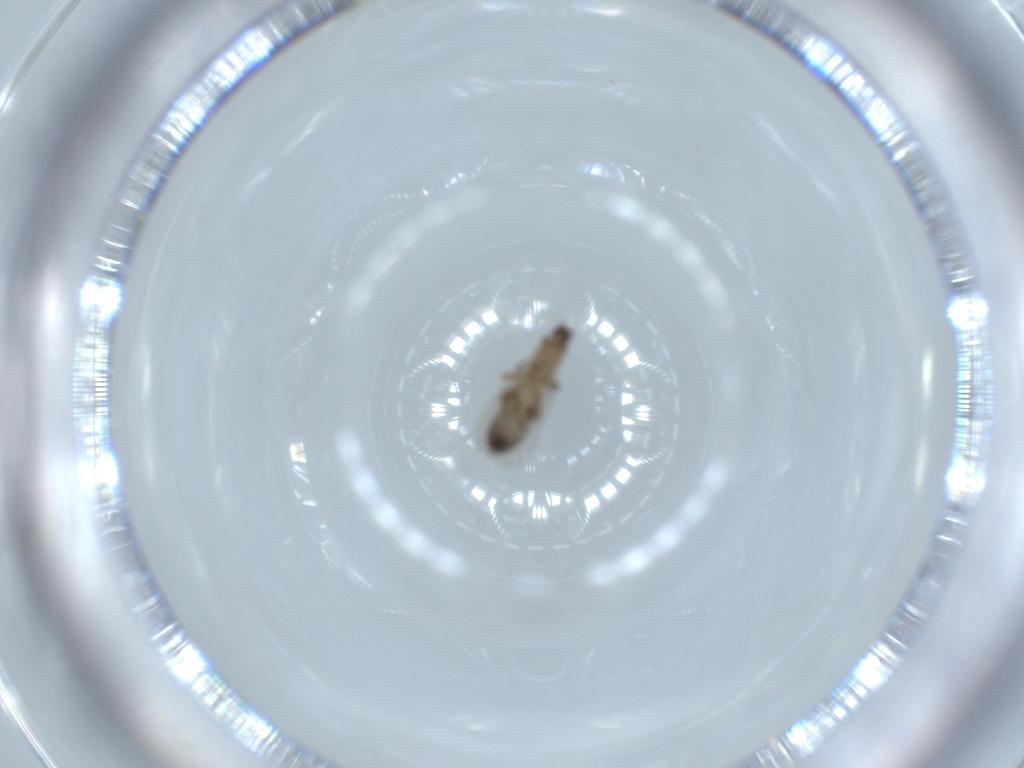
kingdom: Animalia
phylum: Arthropoda
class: Insecta
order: Diptera
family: Phoridae
